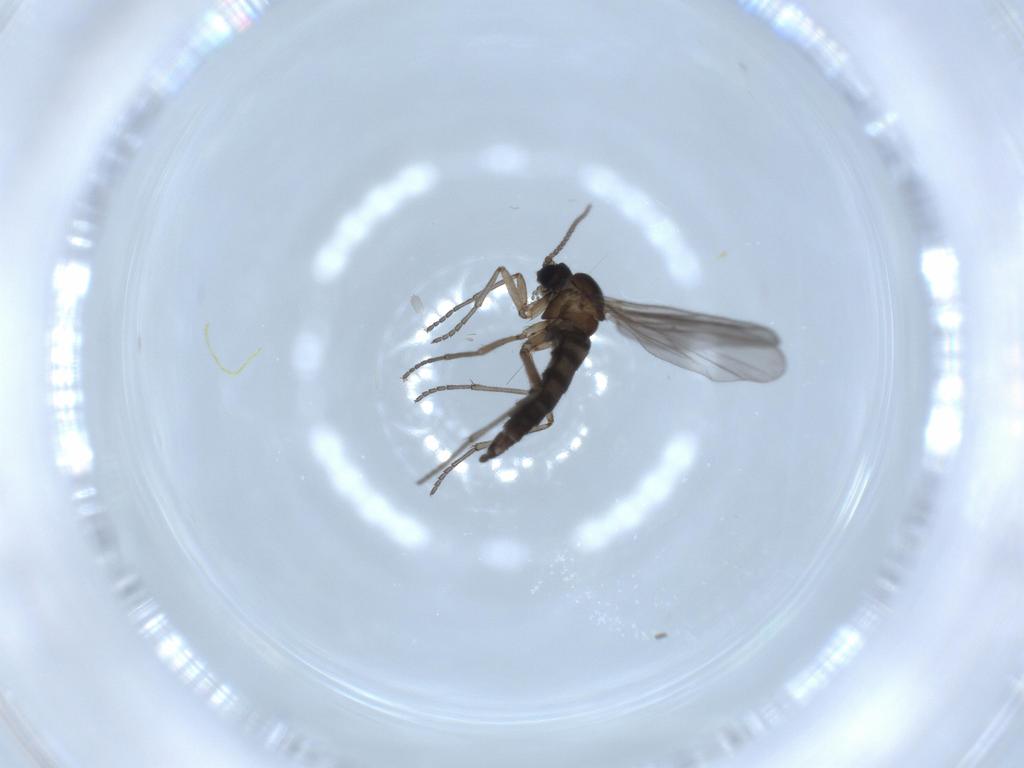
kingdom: Animalia
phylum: Arthropoda
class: Insecta
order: Diptera
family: Sciaridae
